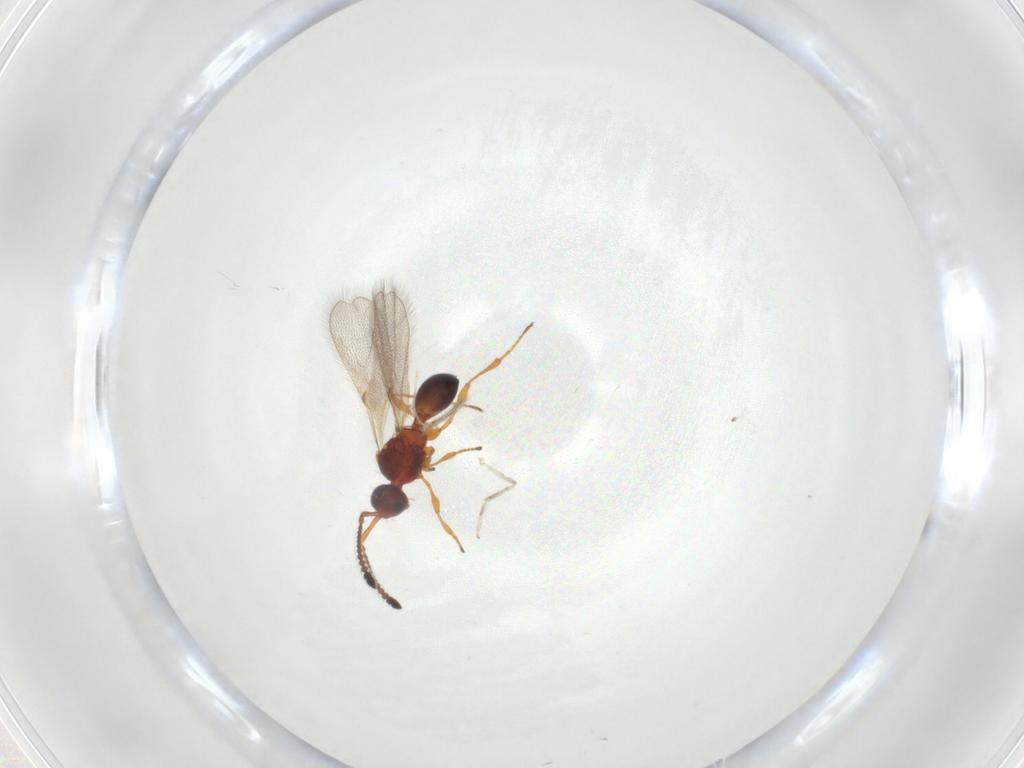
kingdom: Animalia
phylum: Arthropoda
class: Insecta
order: Hymenoptera
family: Diapriidae
